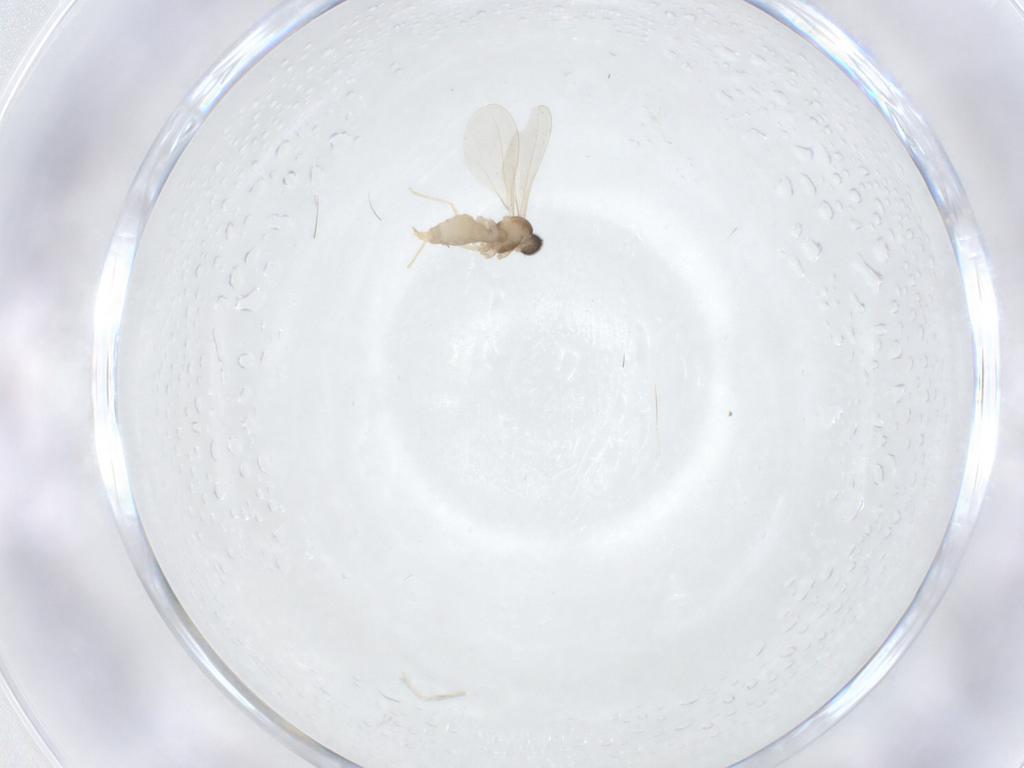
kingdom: Animalia
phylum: Arthropoda
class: Insecta
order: Diptera
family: Cecidomyiidae
